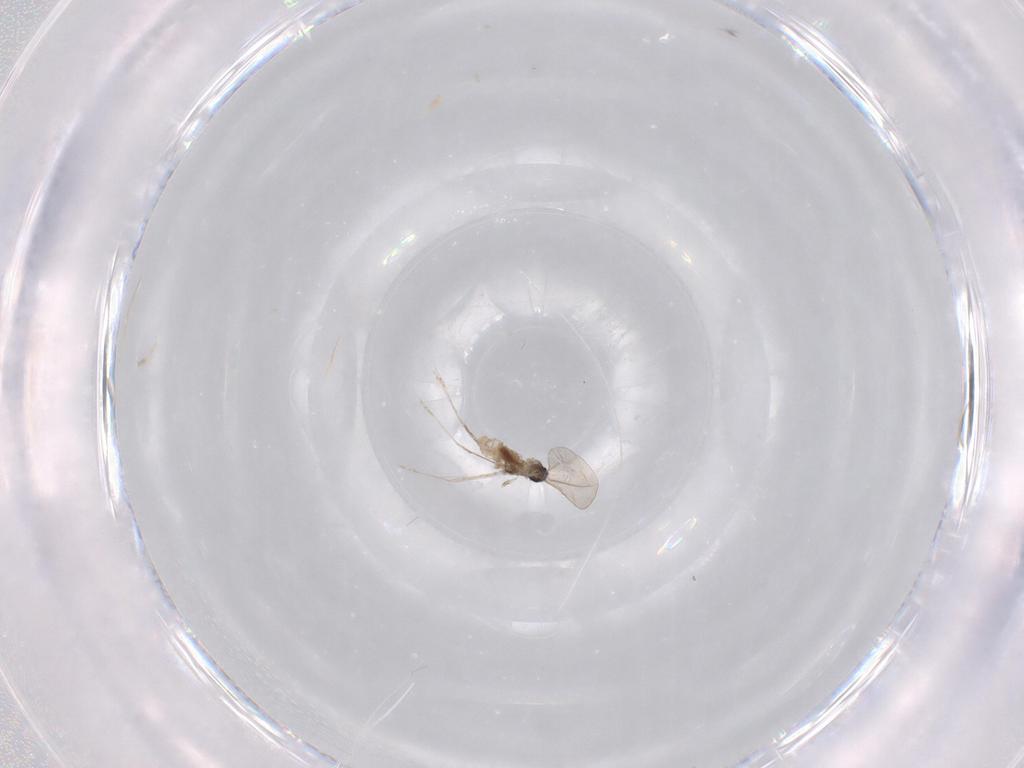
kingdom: Animalia
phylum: Arthropoda
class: Insecta
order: Diptera
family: Cecidomyiidae
